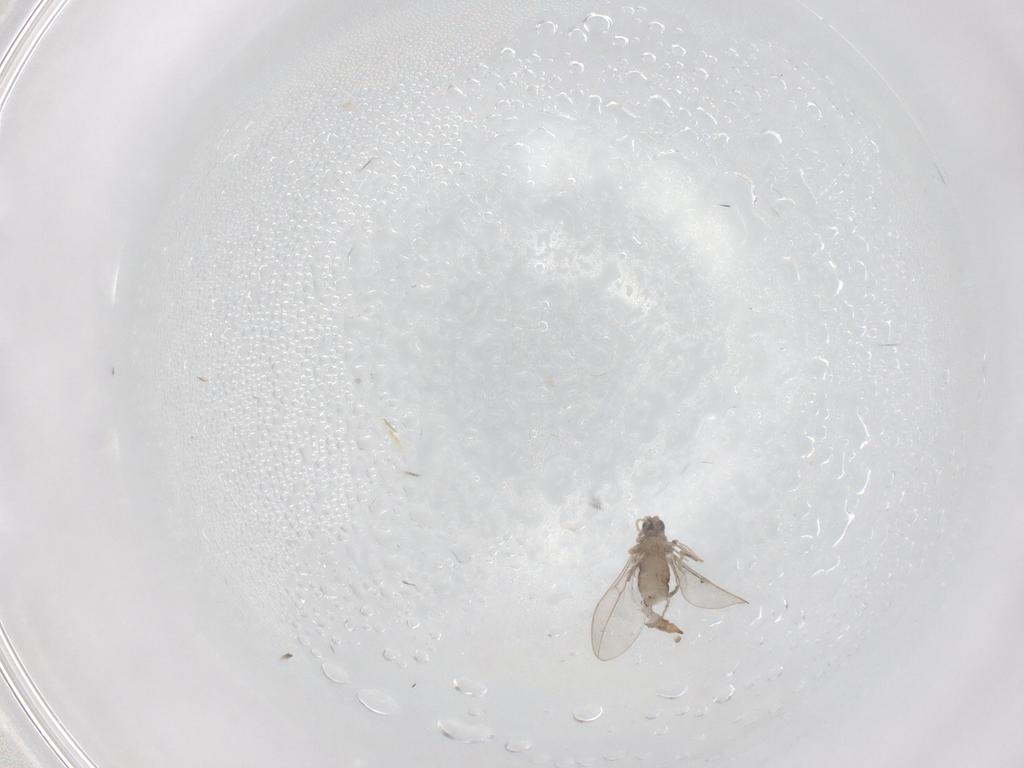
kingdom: Animalia
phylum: Arthropoda
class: Insecta
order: Diptera
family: Cecidomyiidae
